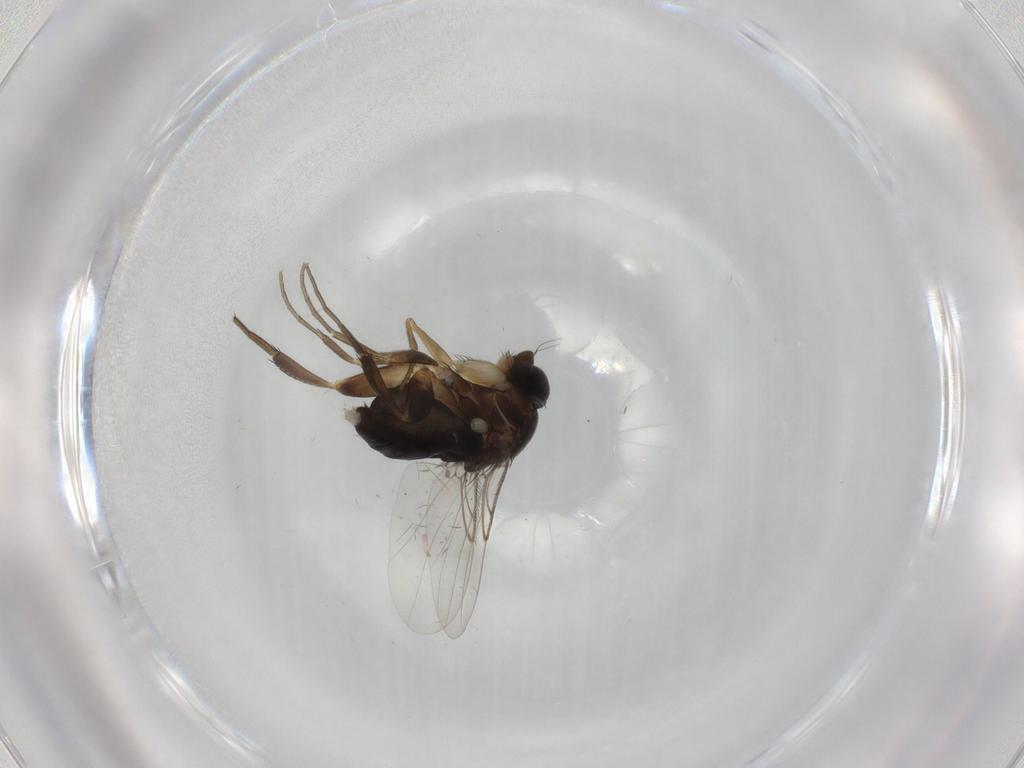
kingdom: Animalia
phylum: Arthropoda
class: Insecta
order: Diptera
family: Phoridae
